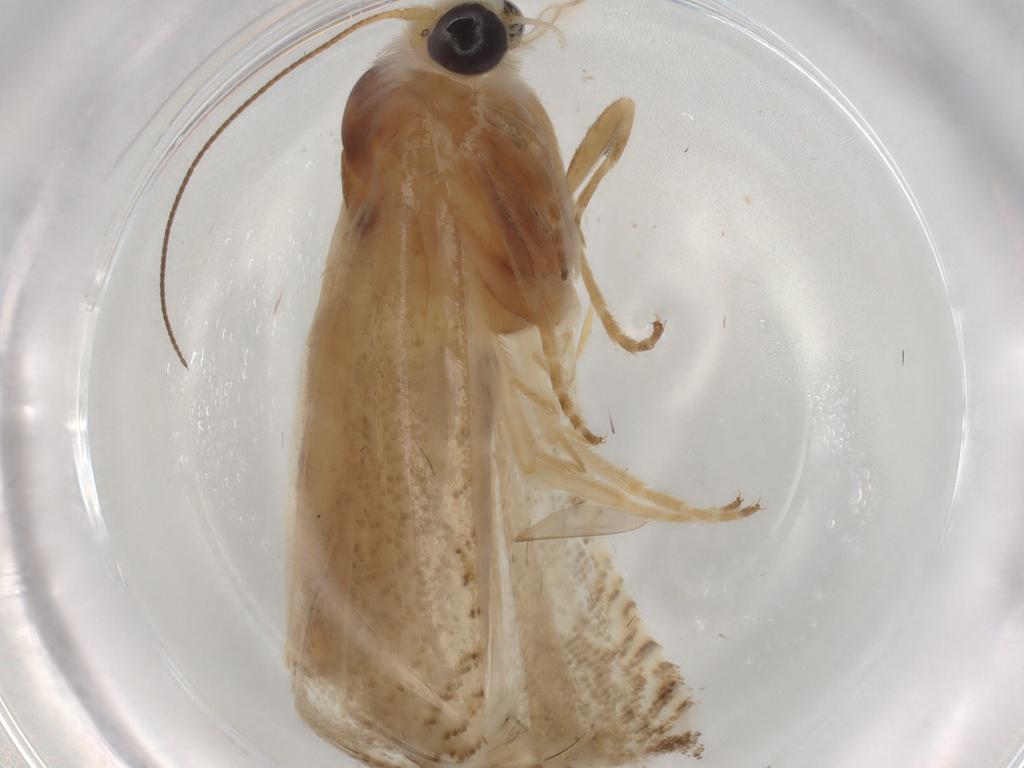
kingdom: Animalia
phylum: Arthropoda
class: Insecta
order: Lepidoptera
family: Tortricidae
